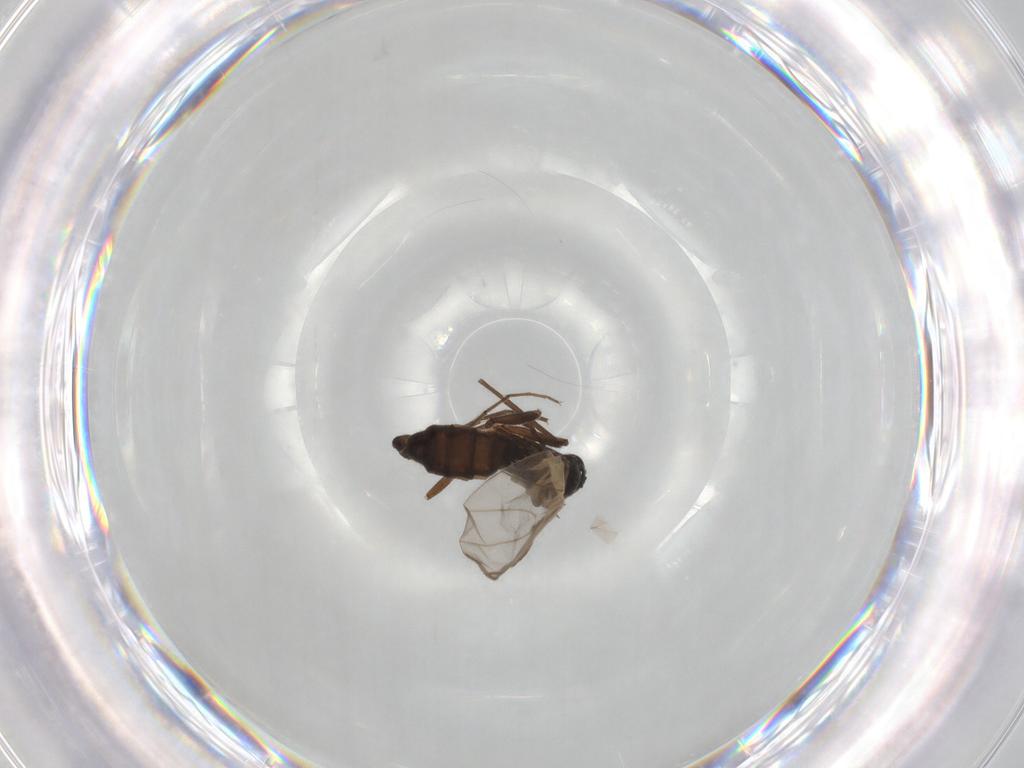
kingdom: Animalia
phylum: Arthropoda
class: Insecta
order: Diptera
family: Chironomidae
